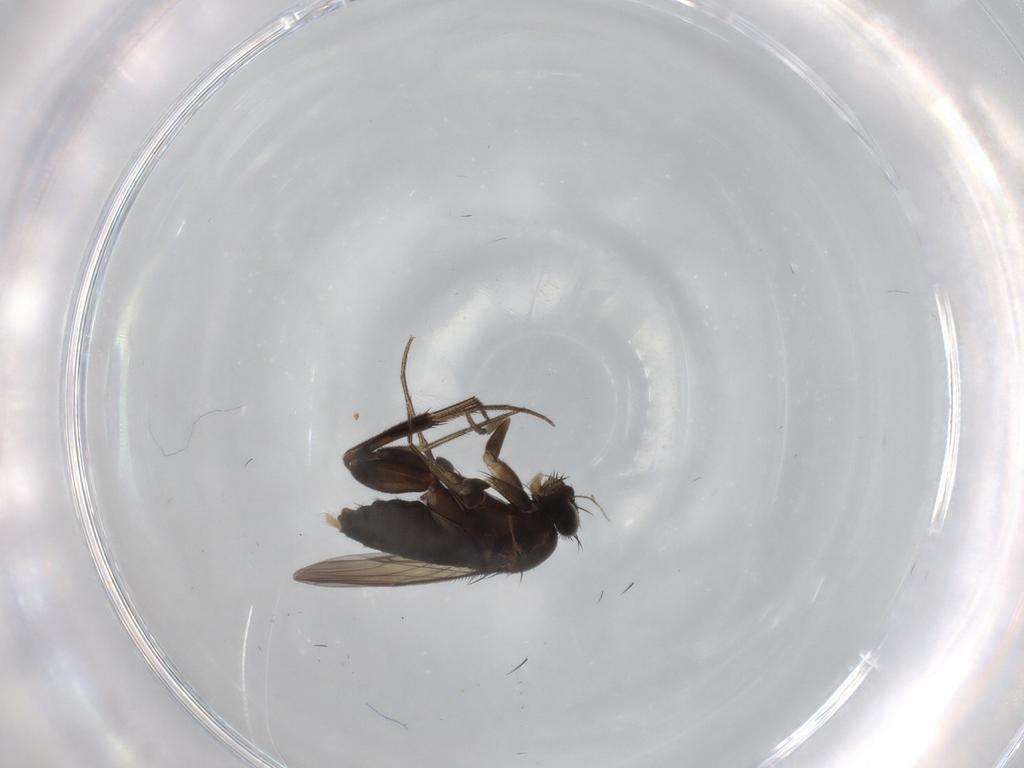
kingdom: Animalia
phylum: Arthropoda
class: Insecta
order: Diptera
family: Phoridae
